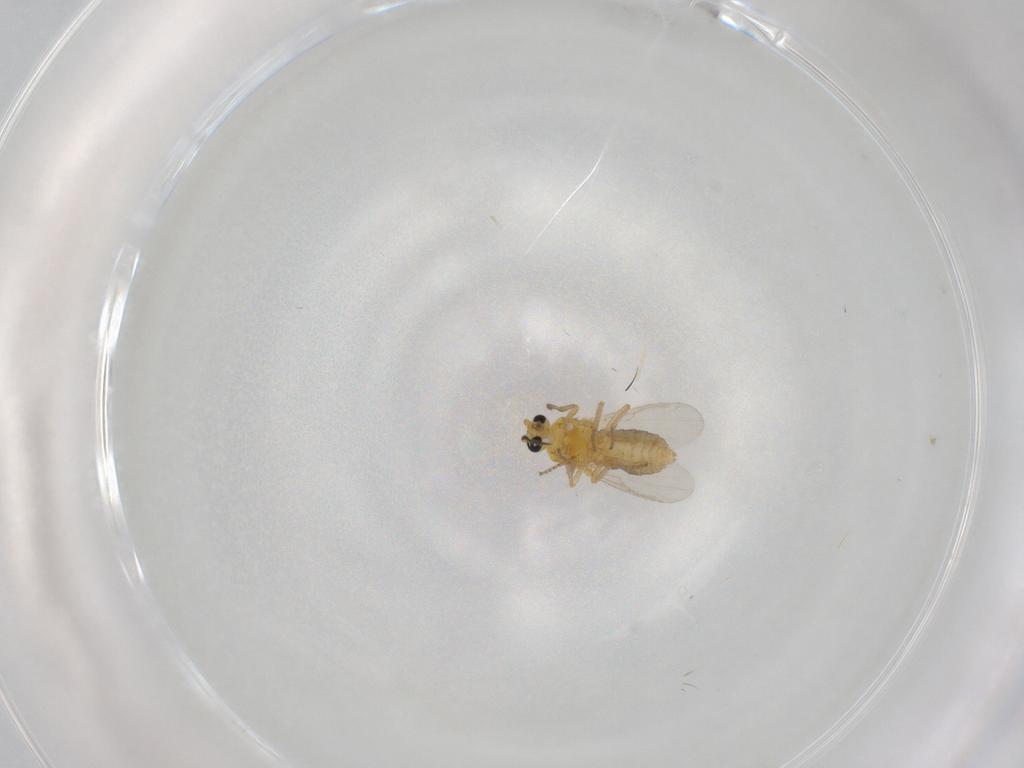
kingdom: Animalia
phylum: Arthropoda
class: Insecta
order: Diptera
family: Ceratopogonidae
